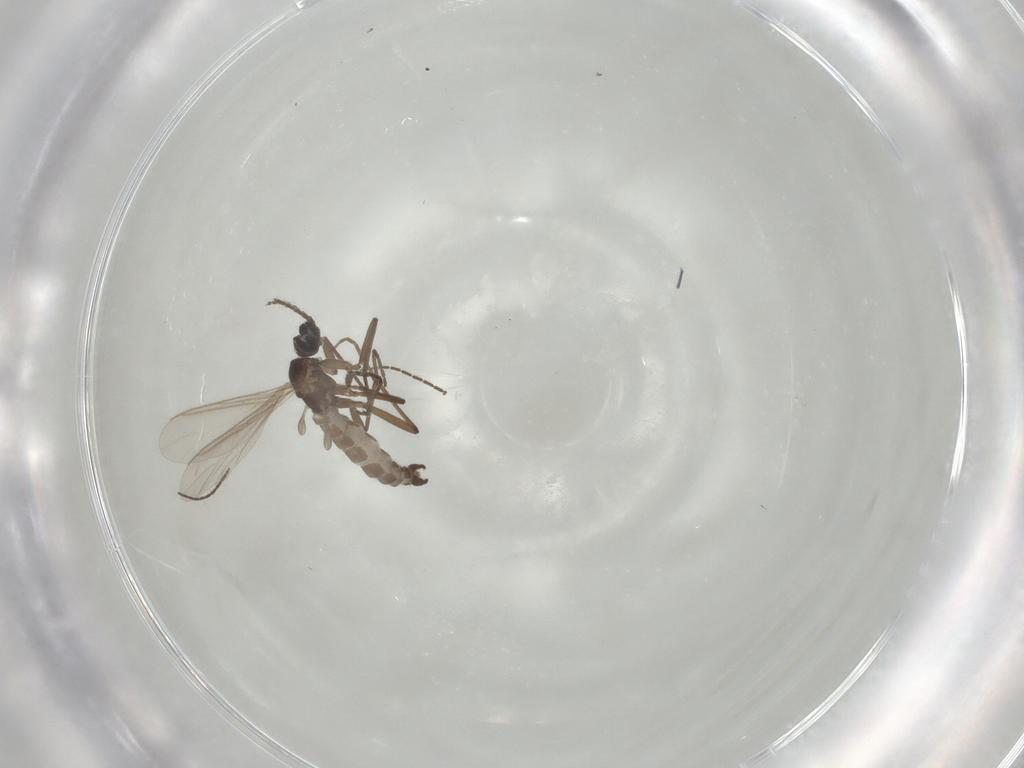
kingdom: Animalia
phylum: Arthropoda
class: Insecta
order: Diptera
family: Sciaridae
